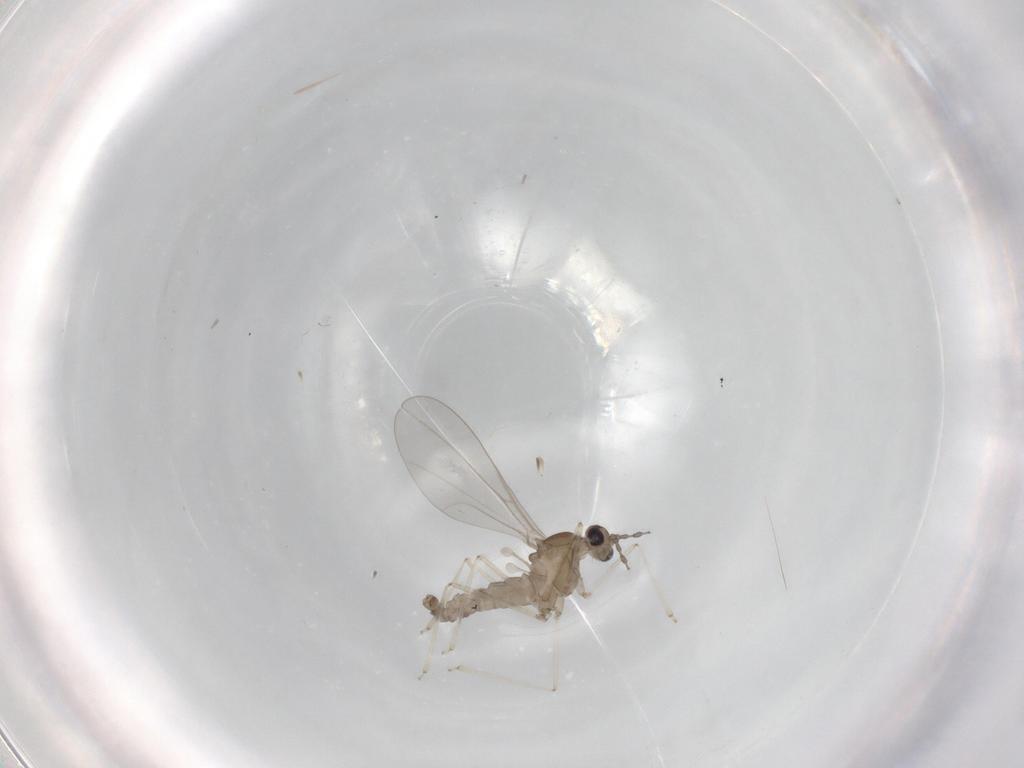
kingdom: Animalia
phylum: Arthropoda
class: Insecta
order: Diptera
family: Cecidomyiidae
